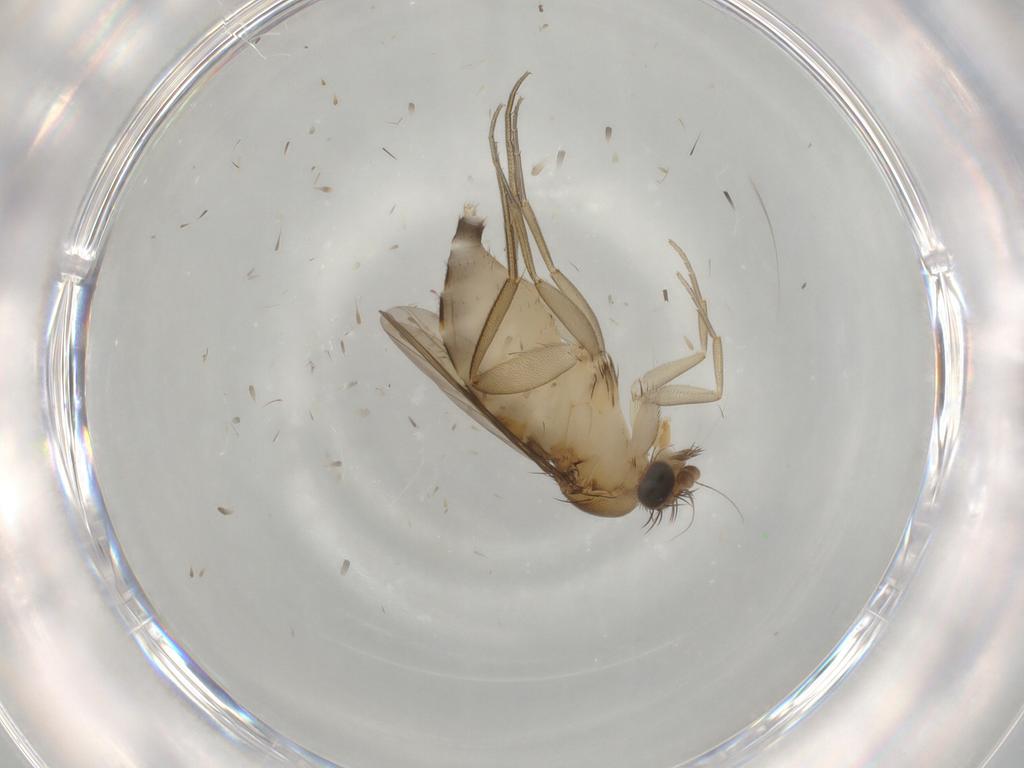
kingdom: Animalia
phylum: Arthropoda
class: Insecta
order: Diptera
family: Phoridae
